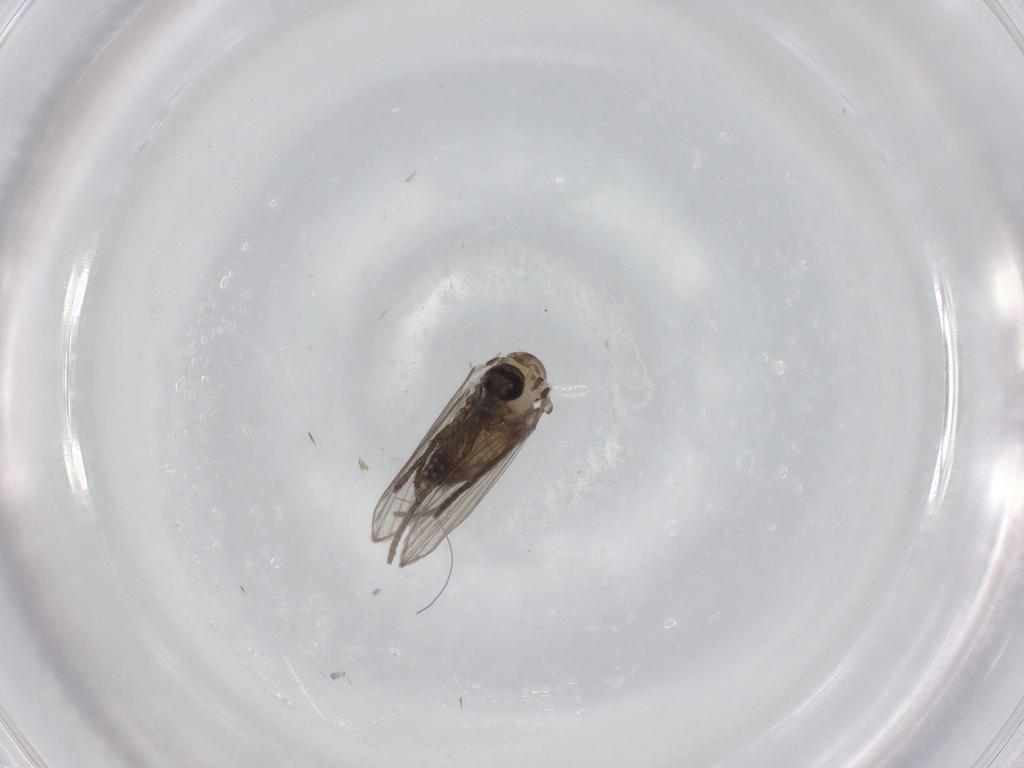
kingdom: Animalia
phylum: Arthropoda
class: Insecta
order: Diptera
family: Psychodidae
